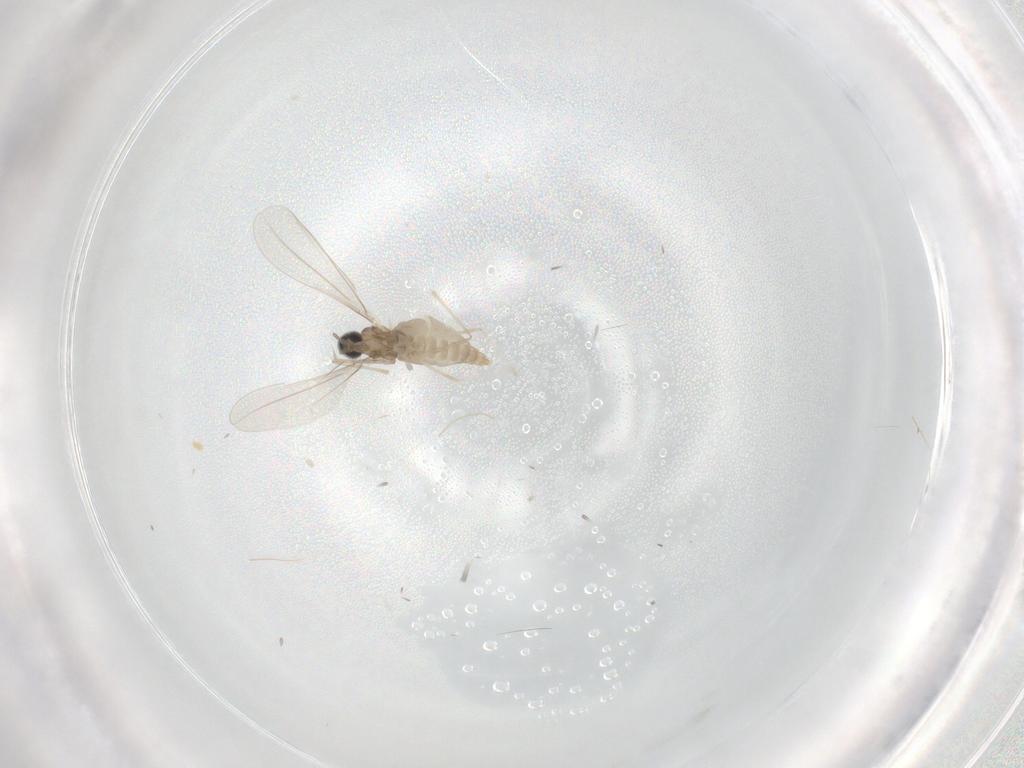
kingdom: Animalia
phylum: Arthropoda
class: Insecta
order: Diptera
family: Cecidomyiidae
